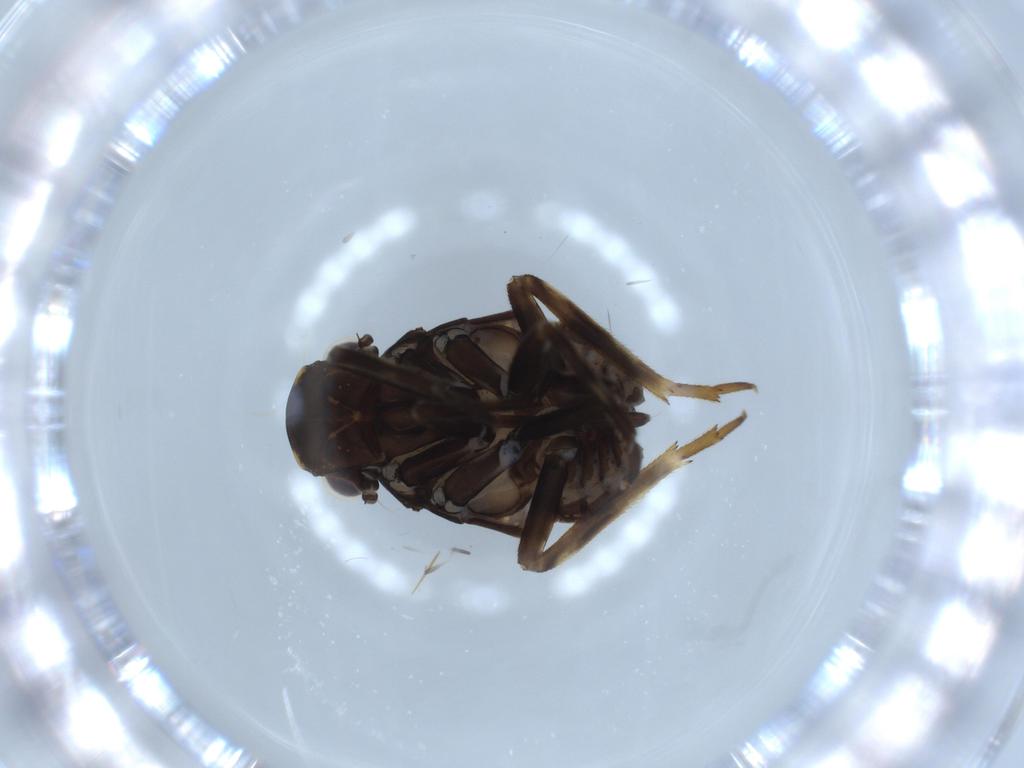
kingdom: Animalia
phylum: Arthropoda
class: Insecta
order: Hemiptera
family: Fulgoridae
